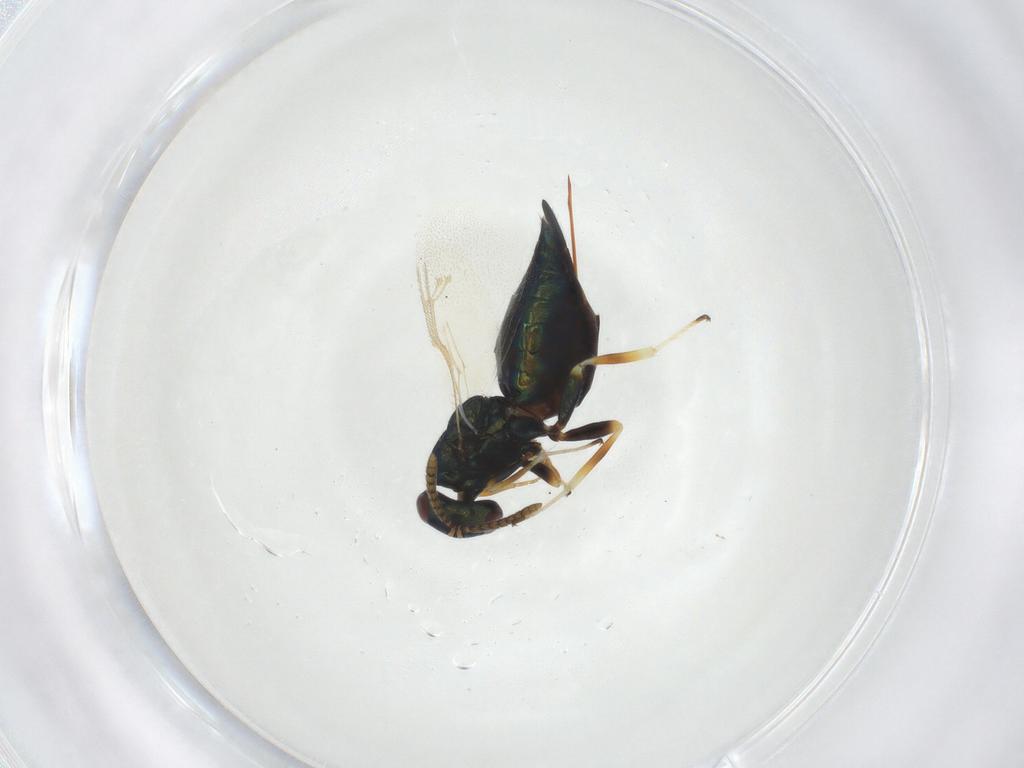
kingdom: Animalia
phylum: Arthropoda
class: Insecta
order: Hymenoptera
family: Pteromalidae
